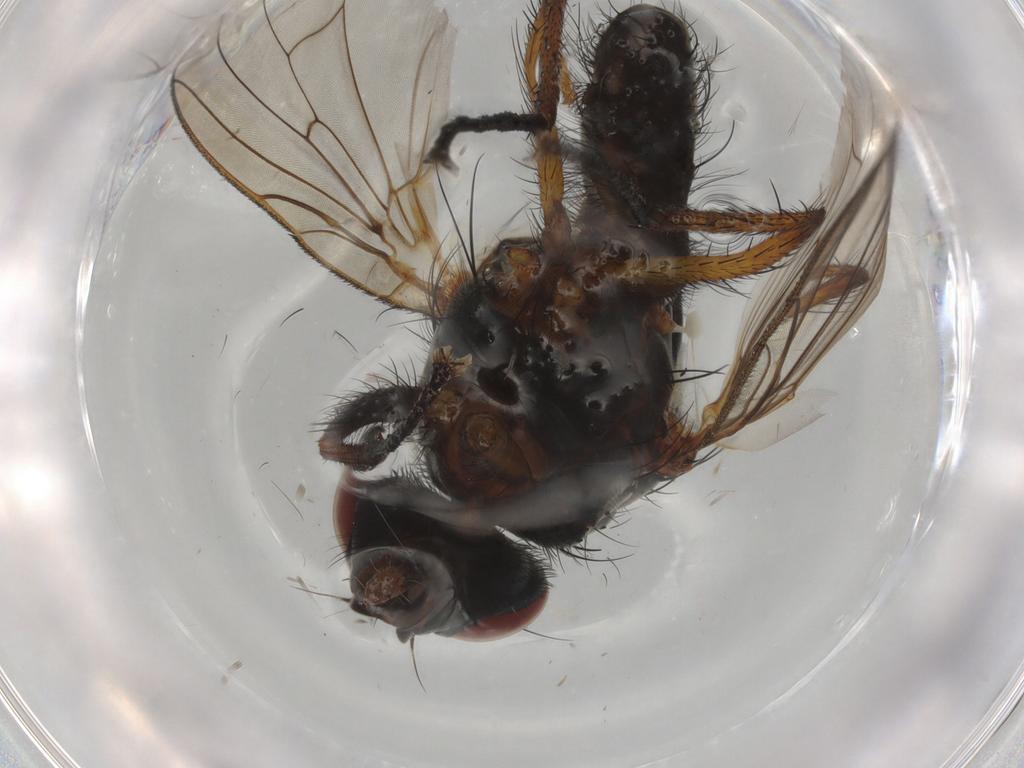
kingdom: Animalia
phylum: Arthropoda
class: Insecta
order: Diptera
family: Anthomyiidae
